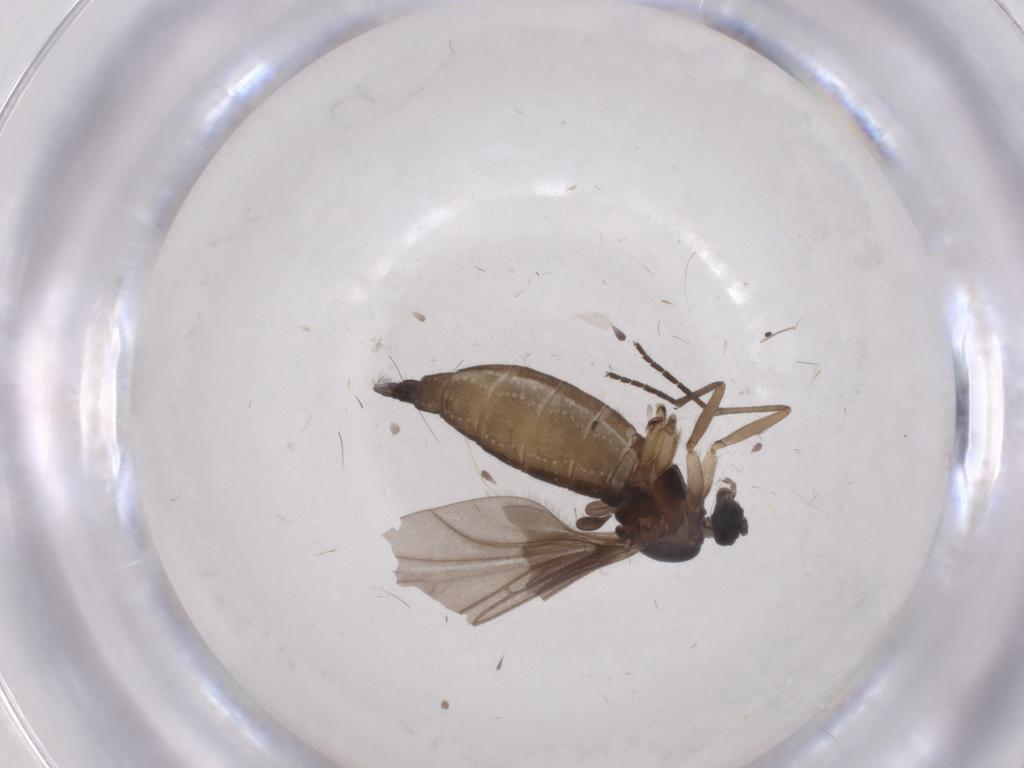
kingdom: Animalia
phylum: Arthropoda
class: Insecta
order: Diptera
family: Sciaridae
